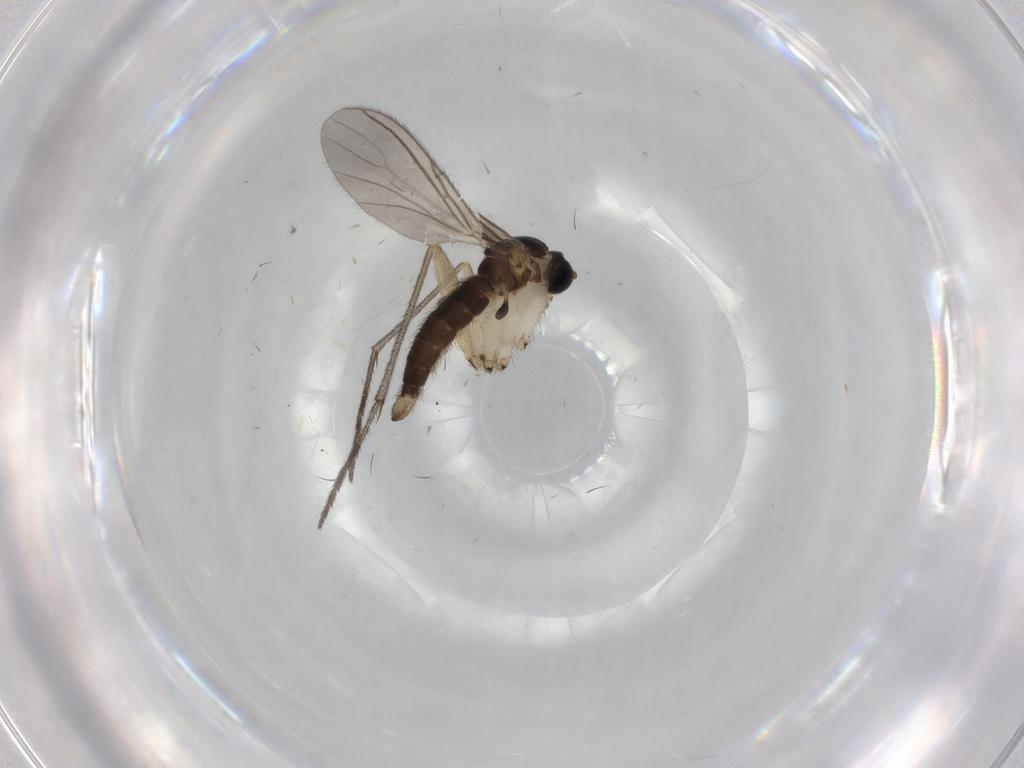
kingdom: Animalia
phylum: Arthropoda
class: Insecta
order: Diptera
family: Sciaridae
